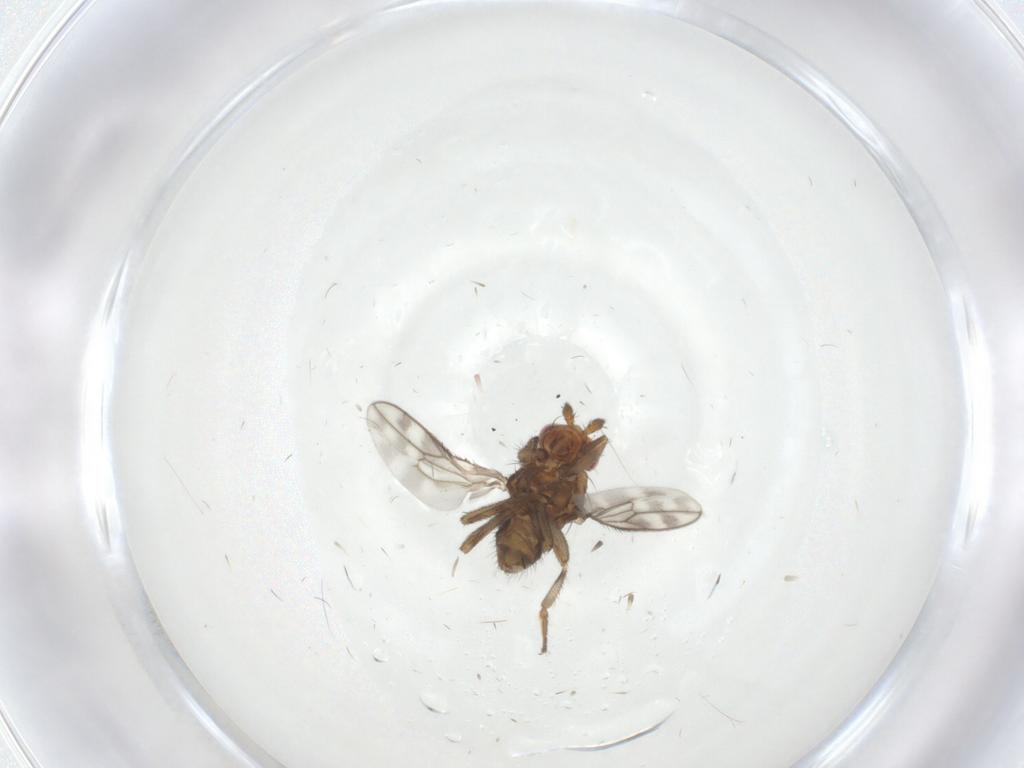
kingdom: Animalia
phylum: Arthropoda
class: Insecta
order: Diptera
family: Sphaeroceridae
